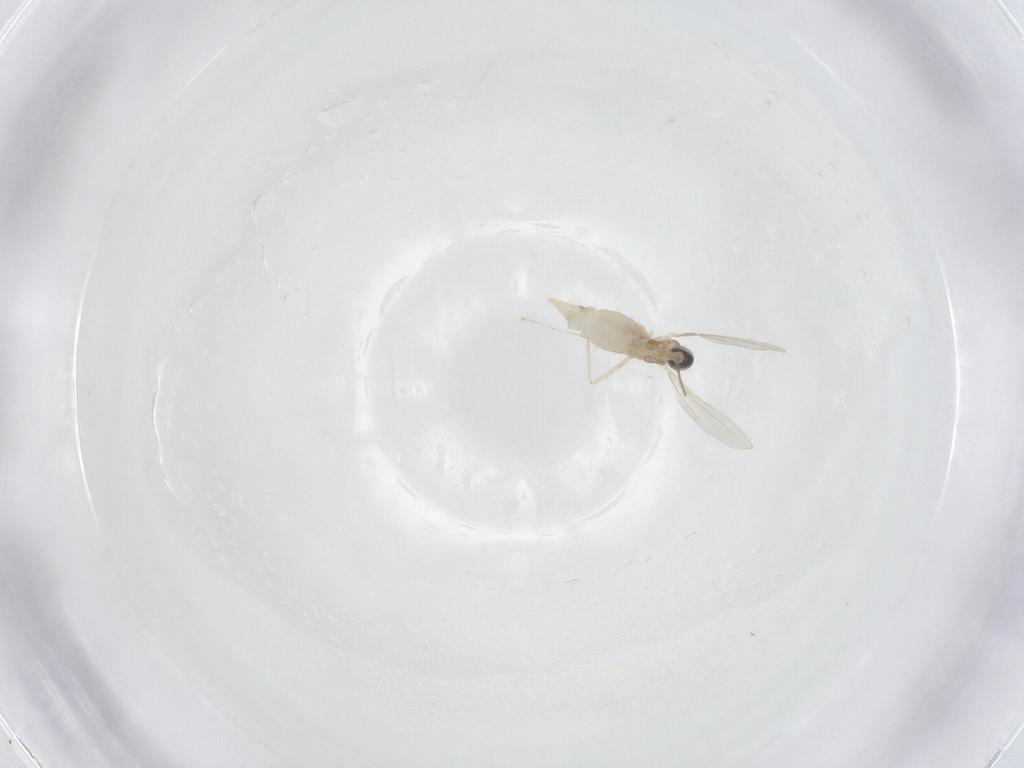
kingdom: Animalia
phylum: Arthropoda
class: Insecta
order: Diptera
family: Cecidomyiidae
